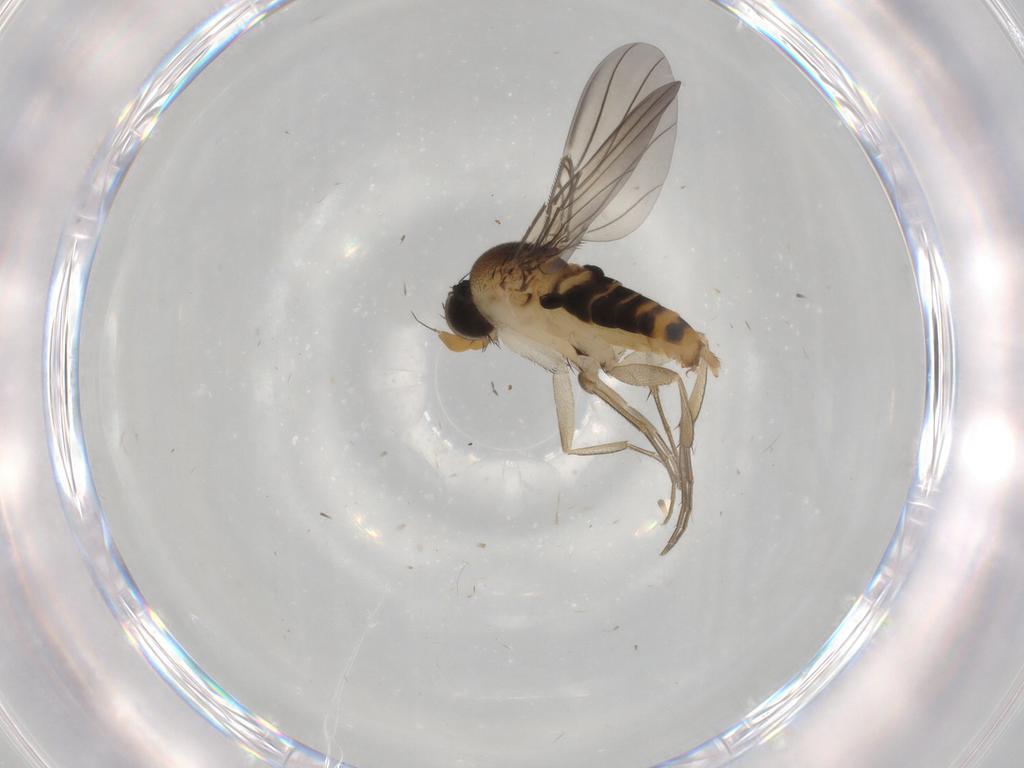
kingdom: Animalia
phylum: Arthropoda
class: Insecta
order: Diptera
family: Phoridae
